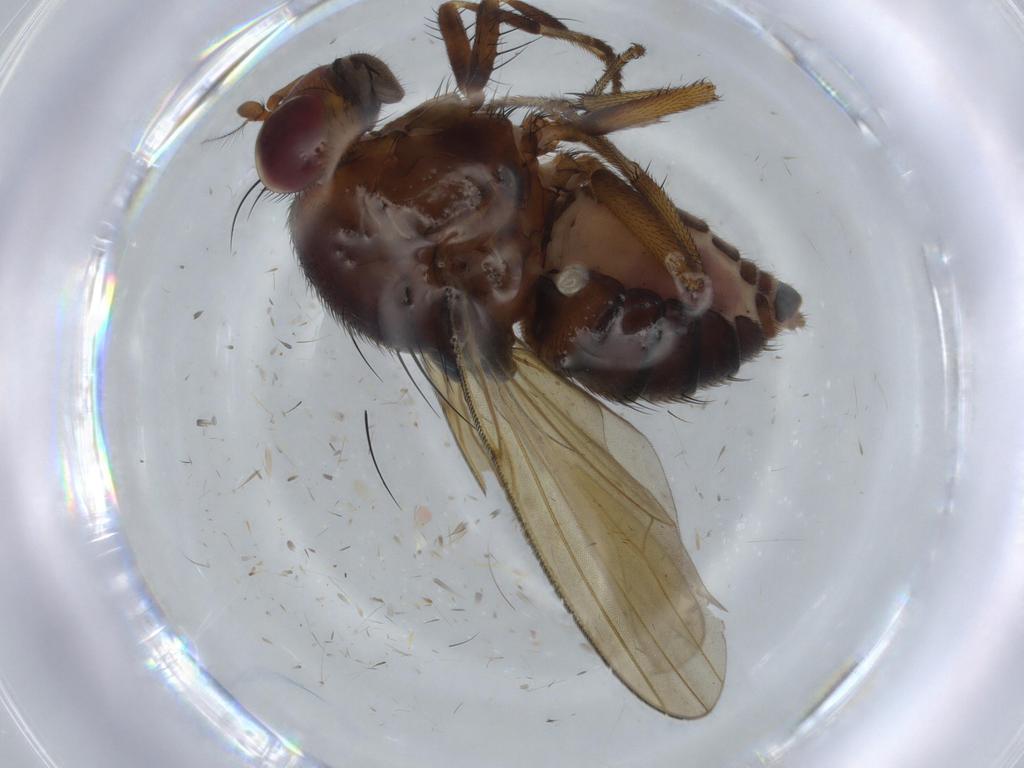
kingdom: Animalia
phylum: Arthropoda
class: Insecta
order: Diptera
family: Ceratopogonidae
